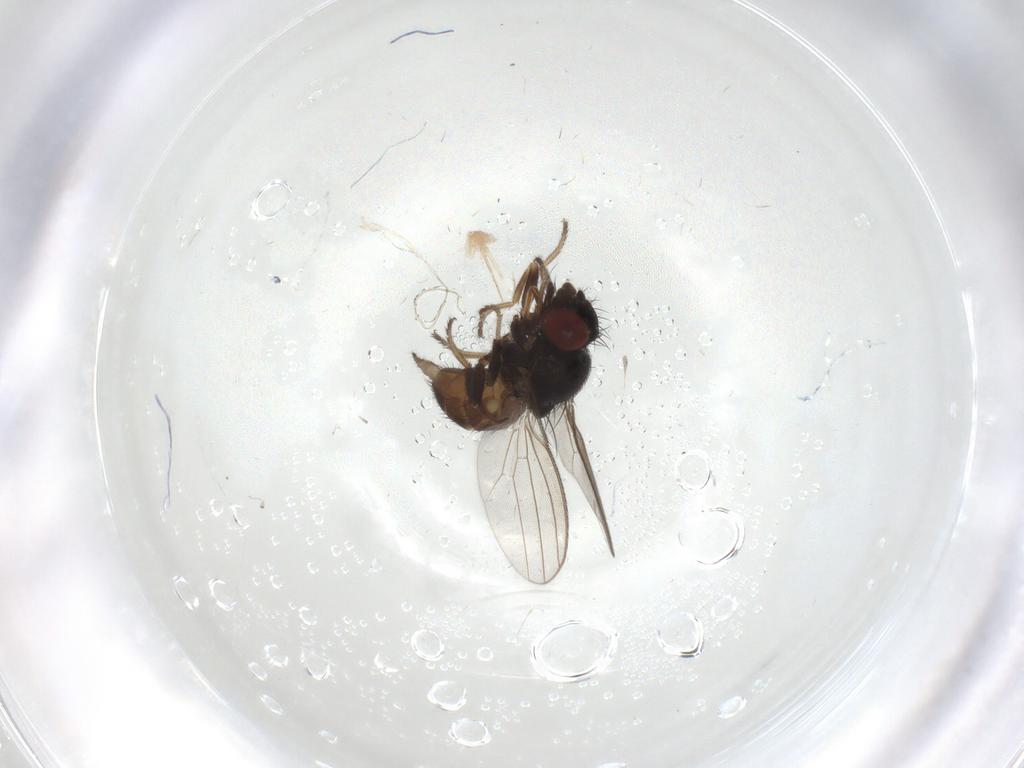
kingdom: Animalia
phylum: Arthropoda
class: Insecta
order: Diptera
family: Milichiidae
